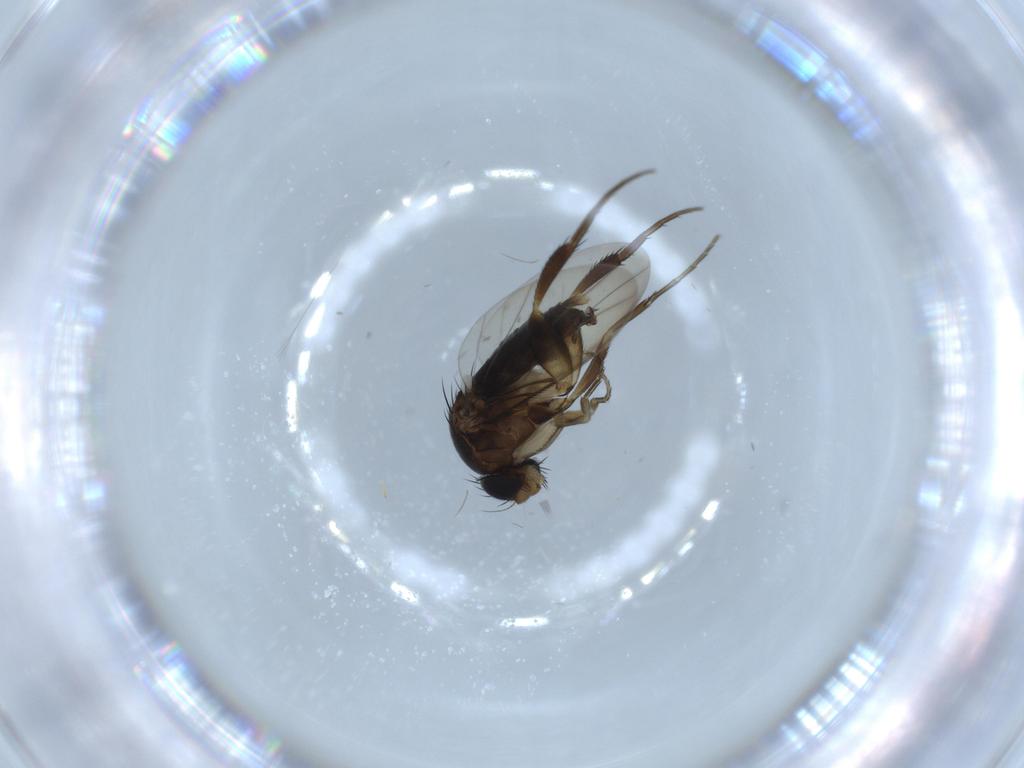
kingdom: Animalia
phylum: Arthropoda
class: Insecta
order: Diptera
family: Phoridae
